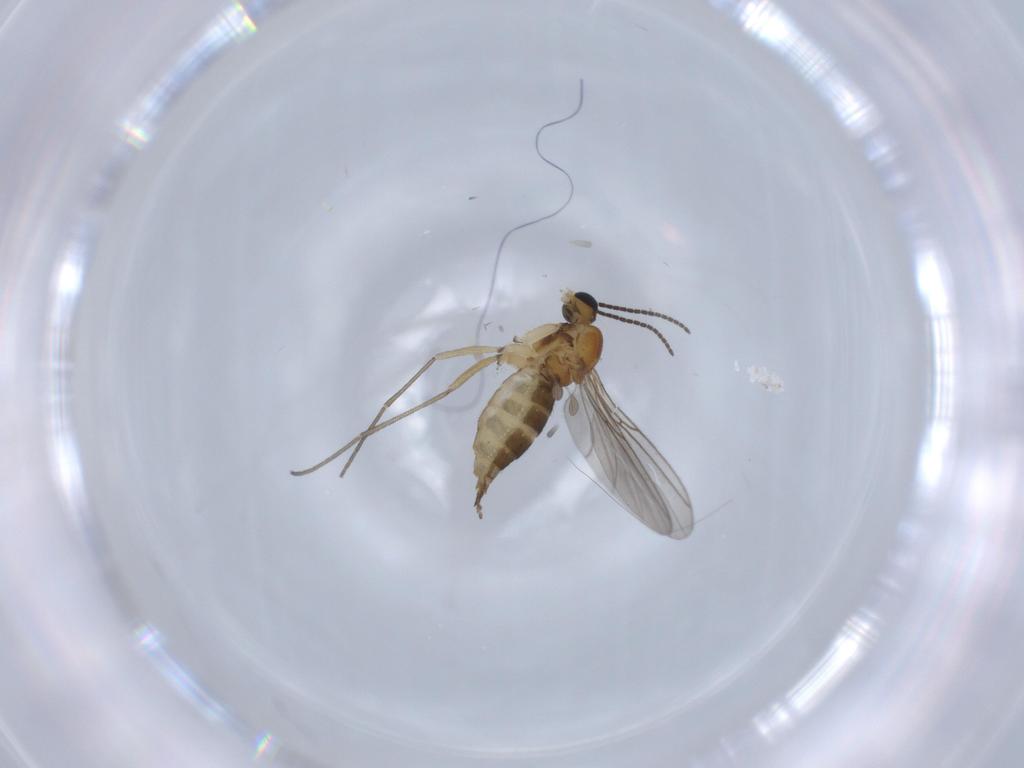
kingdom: Animalia
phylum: Arthropoda
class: Insecta
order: Diptera
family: Sciaridae
